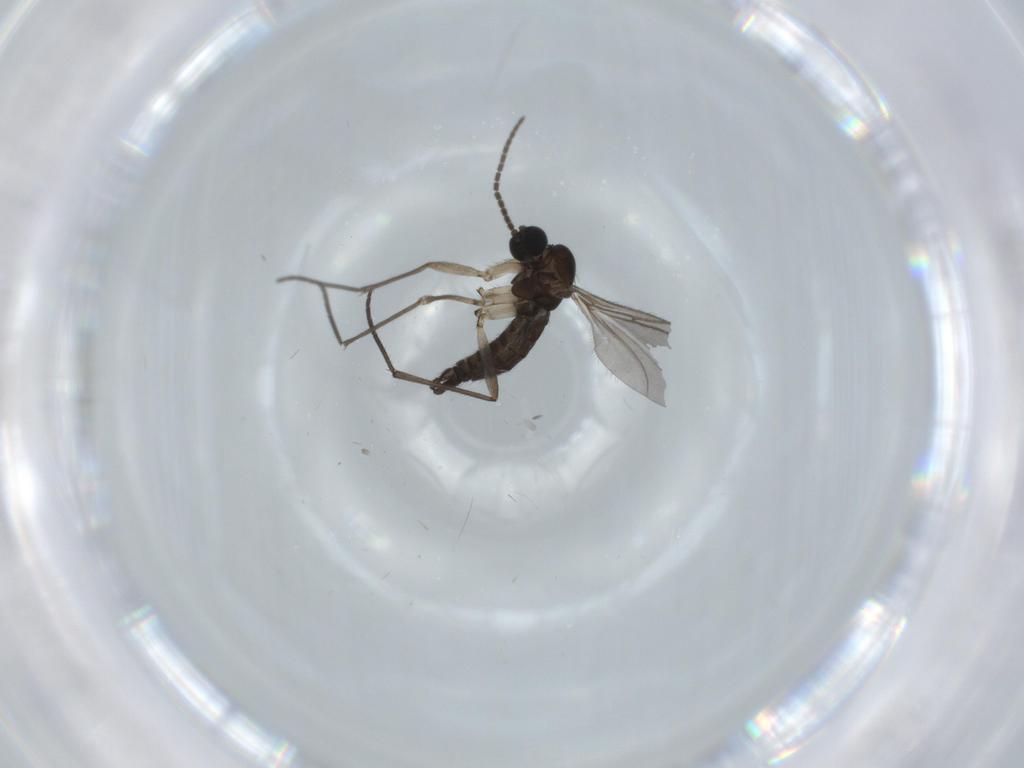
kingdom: Animalia
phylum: Arthropoda
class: Insecta
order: Diptera
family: Sciaridae
